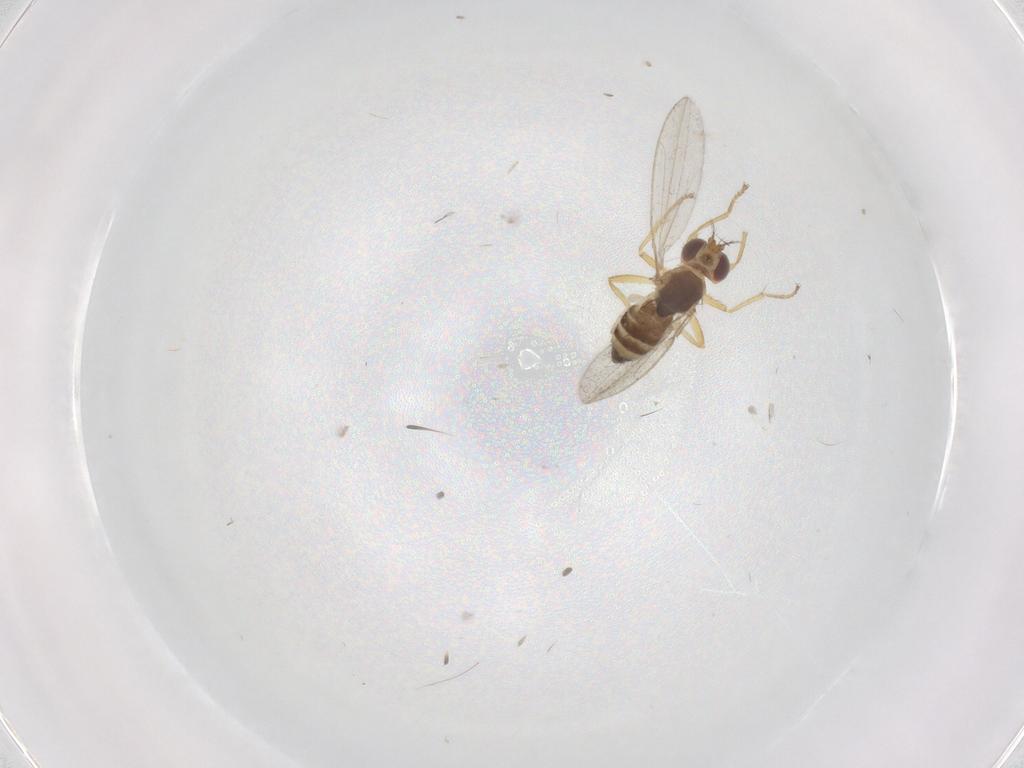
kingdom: Animalia
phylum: Arthropoda
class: Insecta
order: Diptera
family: Periscelididae
